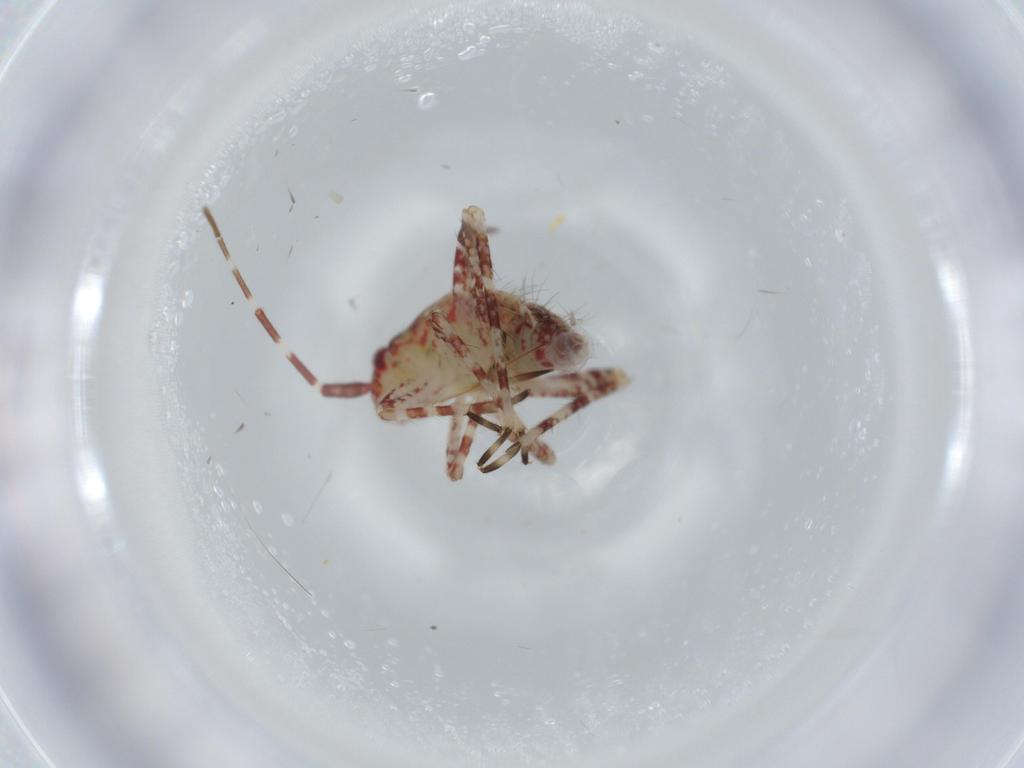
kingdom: Animalia
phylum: Arthropoda
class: Insecta
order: Hemiptera
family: Miridae
